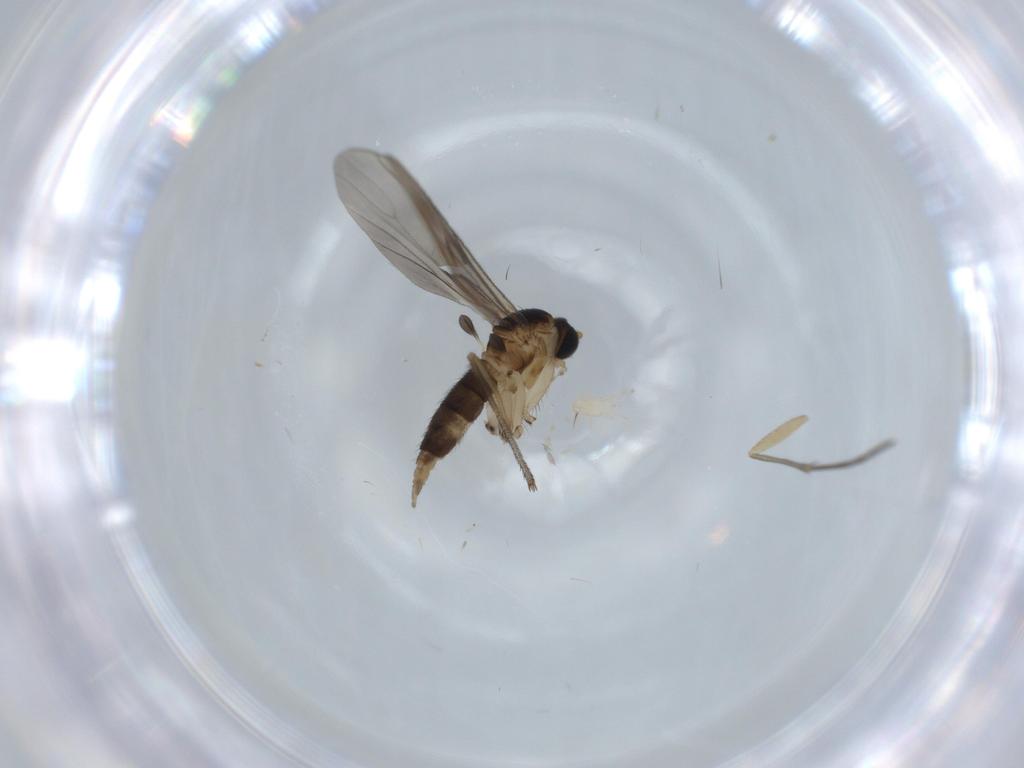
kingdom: Animalia
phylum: Arthropoda
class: Insecta
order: Diptera
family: Sciaridae
